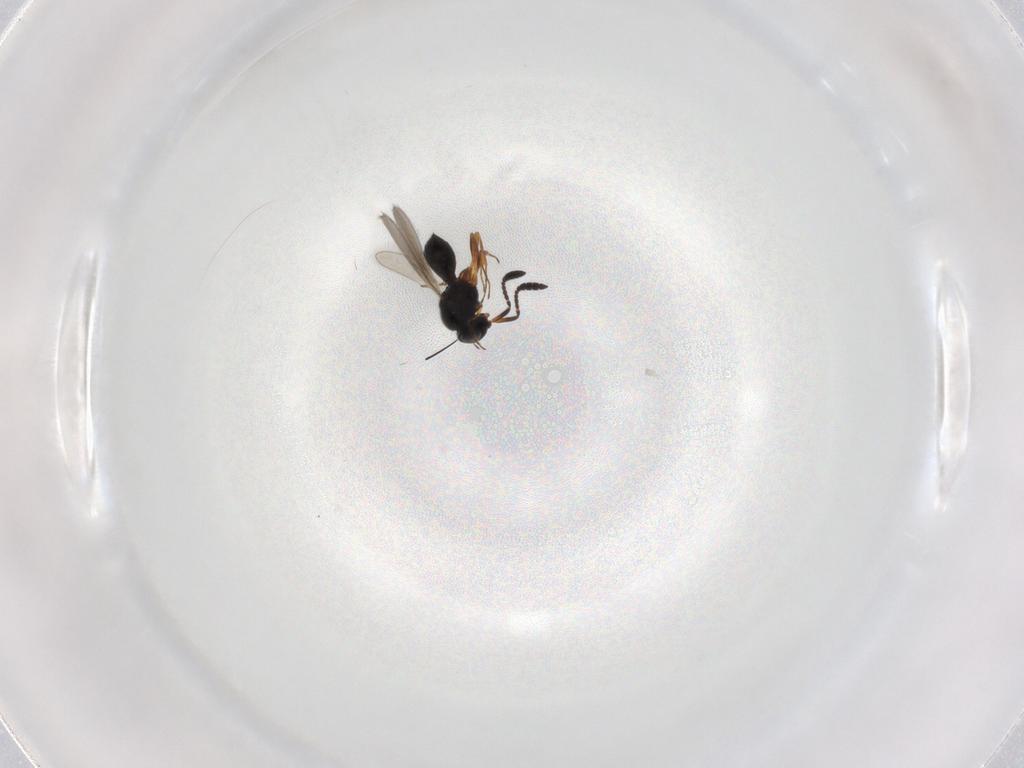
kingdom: Animalia
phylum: Arthropoda
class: Insecta
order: Hymenoptera
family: Scelionidae
